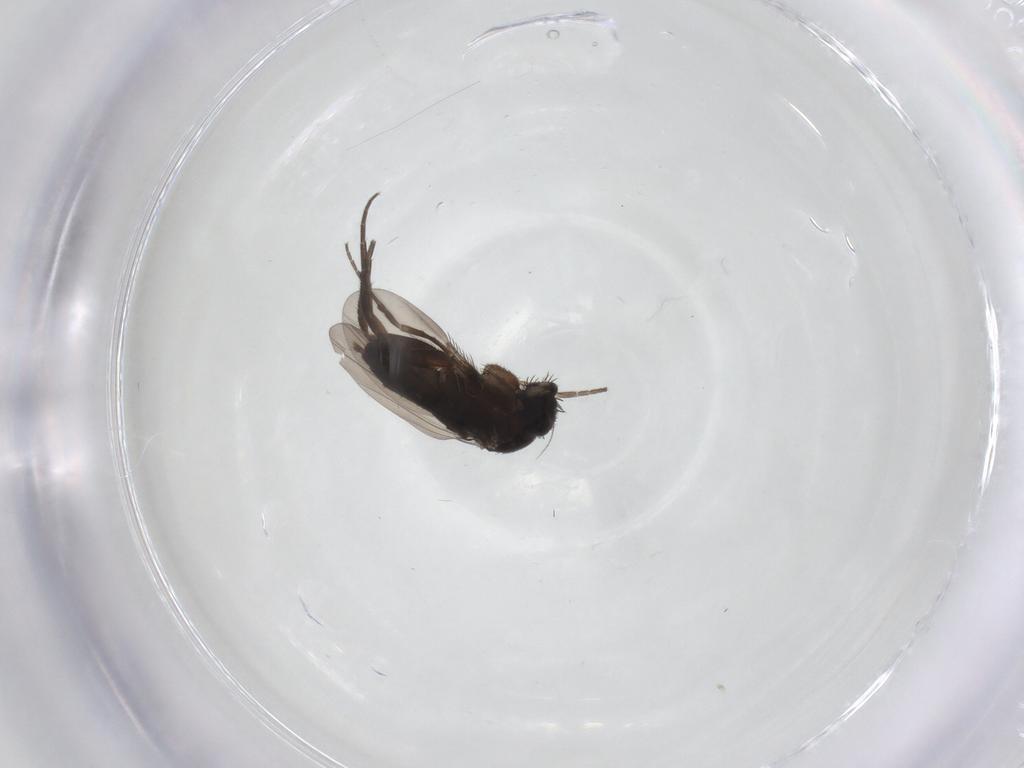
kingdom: Animalia
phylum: Arthropoda
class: Insecta
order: Diptera
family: Phoridae
